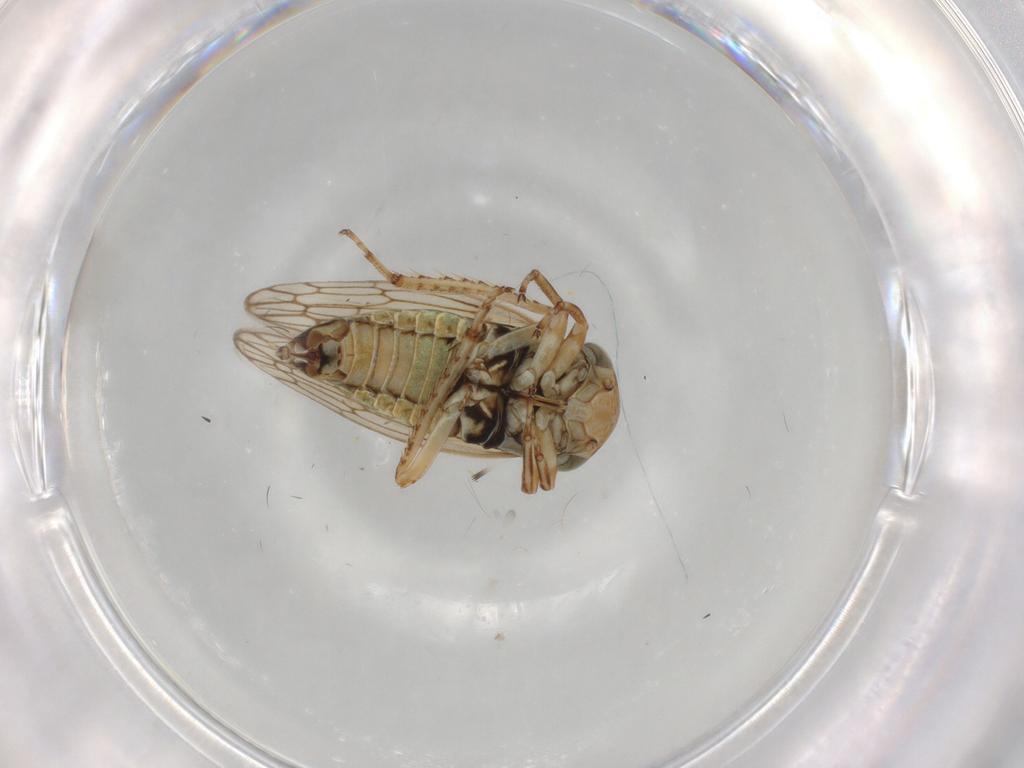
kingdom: Animalia
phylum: Arthropoda
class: Insecta
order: Hemiptera
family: Cicadellidae
